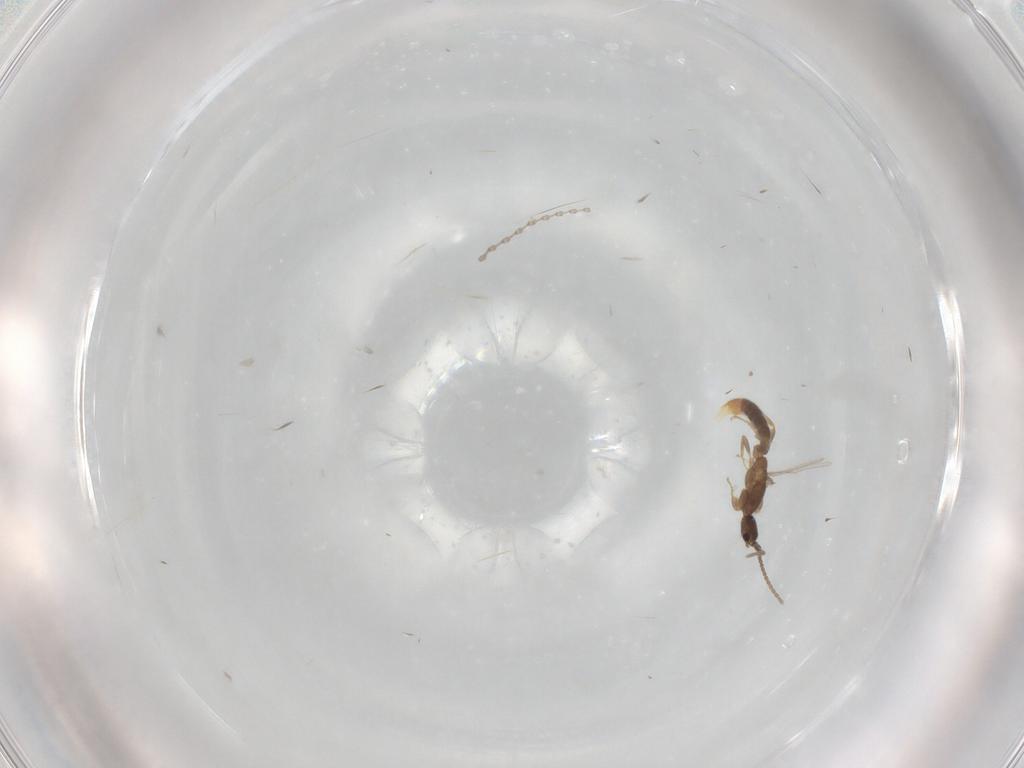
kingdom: Animalia
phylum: Arthropoda
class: Insecta
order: Hymenoptera
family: Formicidae
